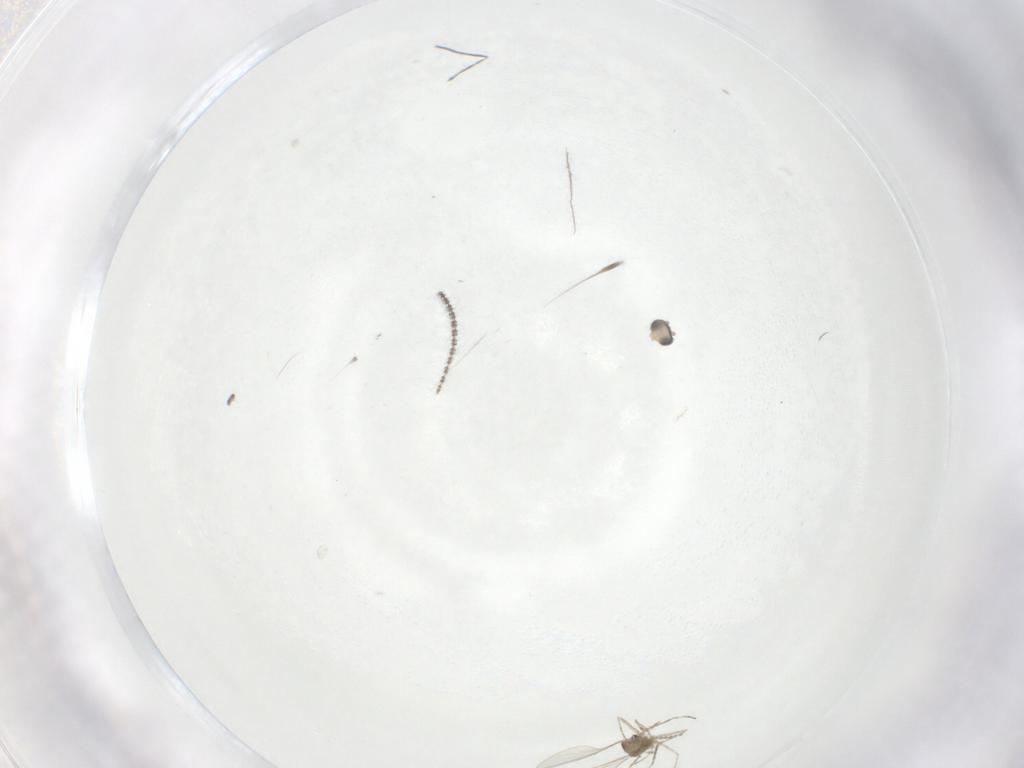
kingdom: Animalia
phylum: Arthropoda
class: Insecta
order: Diptera
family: Cecidomyiidae
